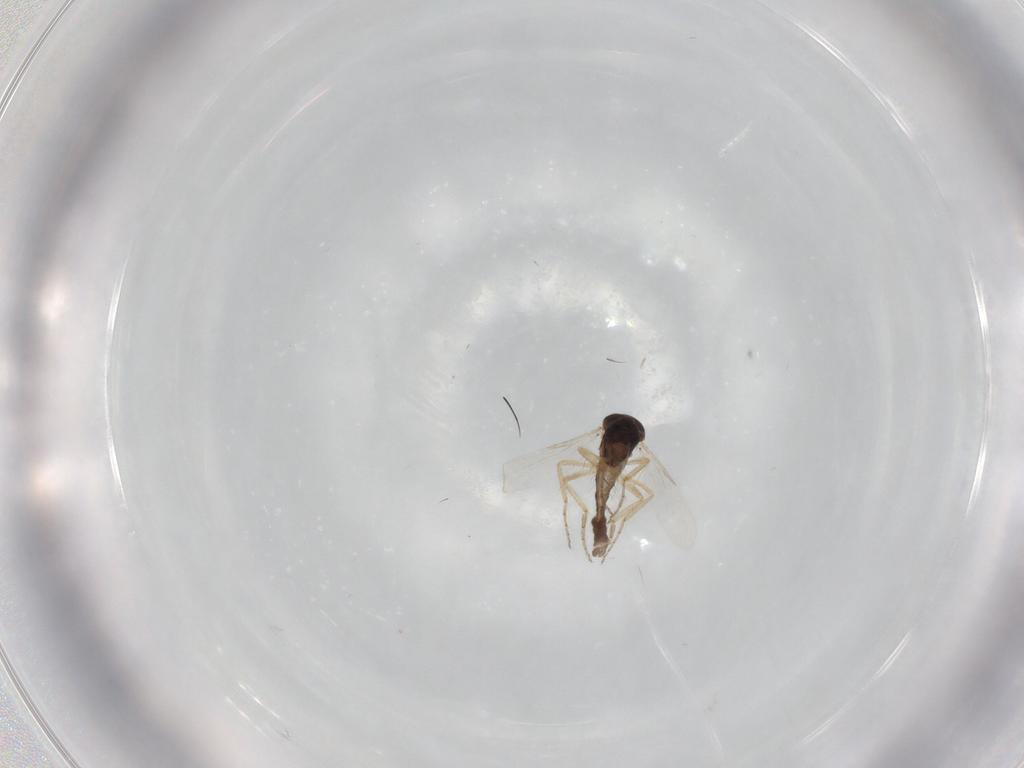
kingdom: Animalia
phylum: Arthropoda
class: Insecta
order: Diptera
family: Ceratopogonidae
